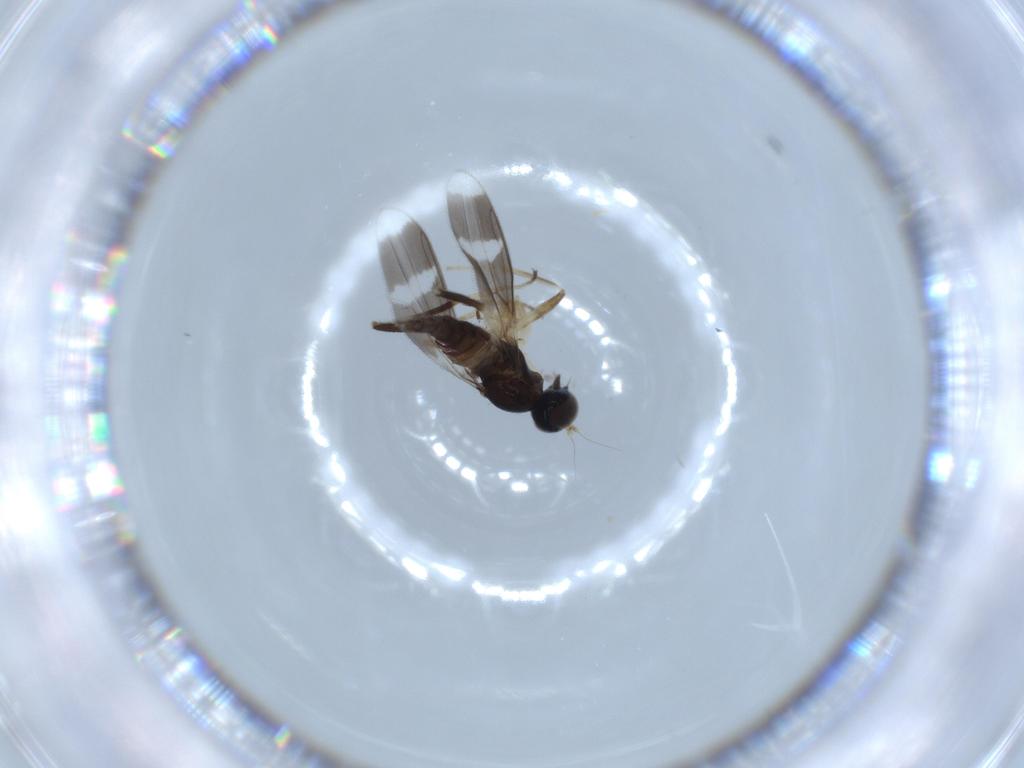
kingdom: Animalia
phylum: Arthropoda
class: Insecta
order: Diptera
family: Hybotidae
